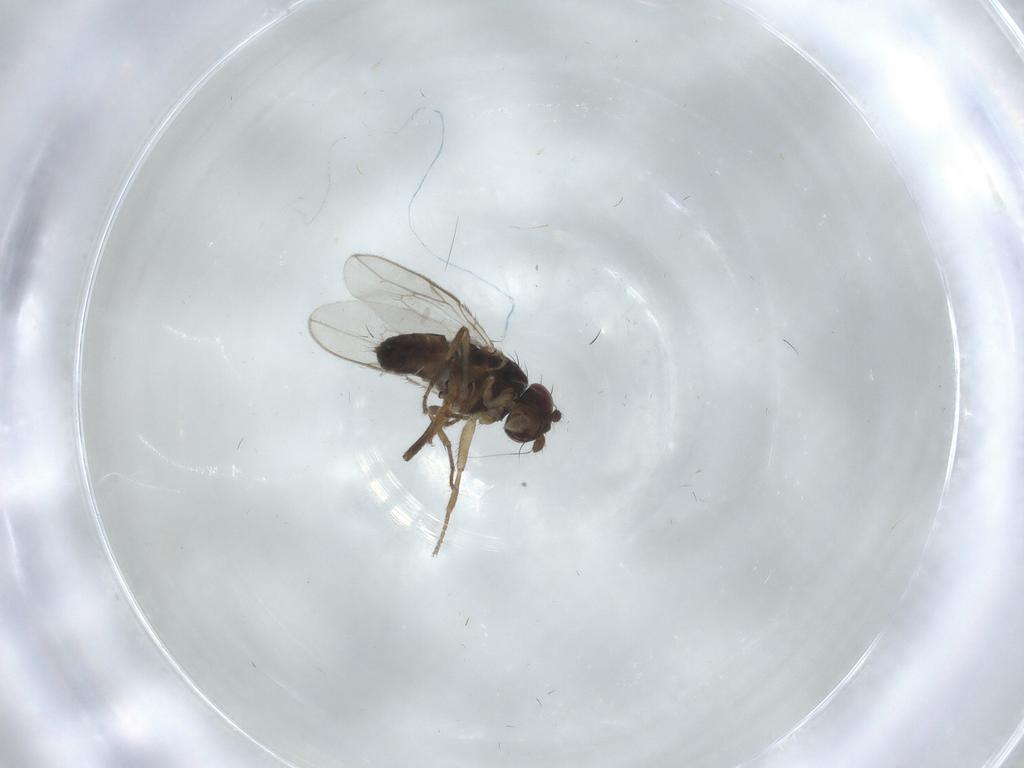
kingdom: Animalia
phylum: Arthropoda
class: Insecta
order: Diptera
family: Sphaeroceridae
